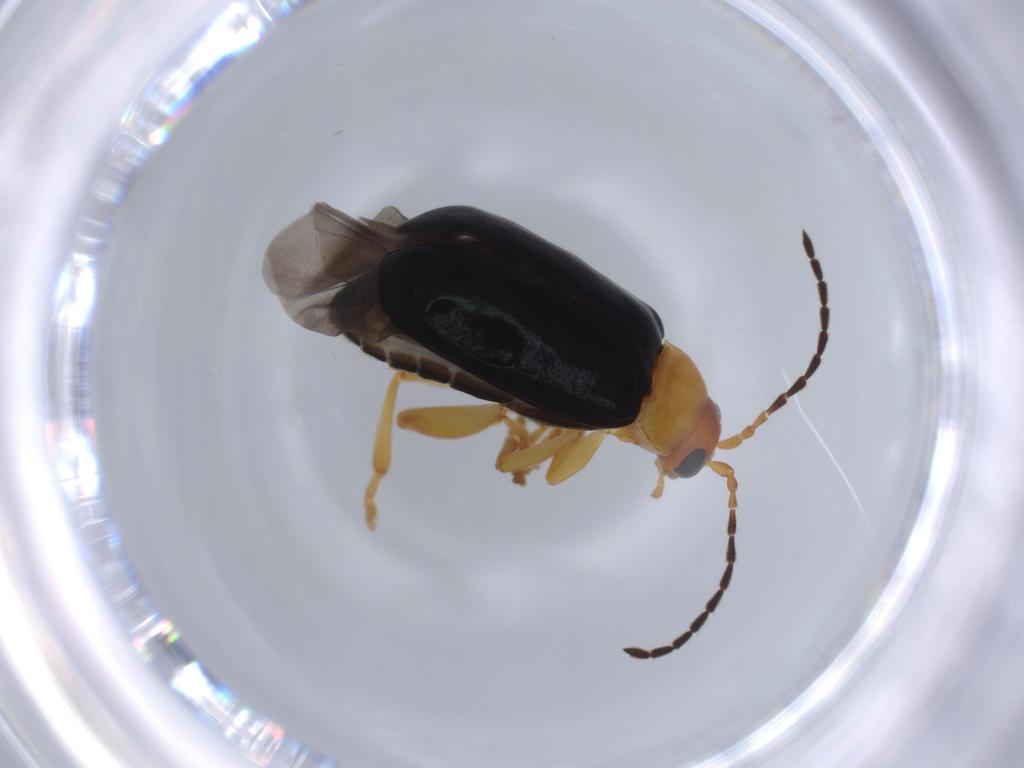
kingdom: Animalia
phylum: Arthropoda
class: Insecta
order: Coleoptera
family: Chrysomelidae
